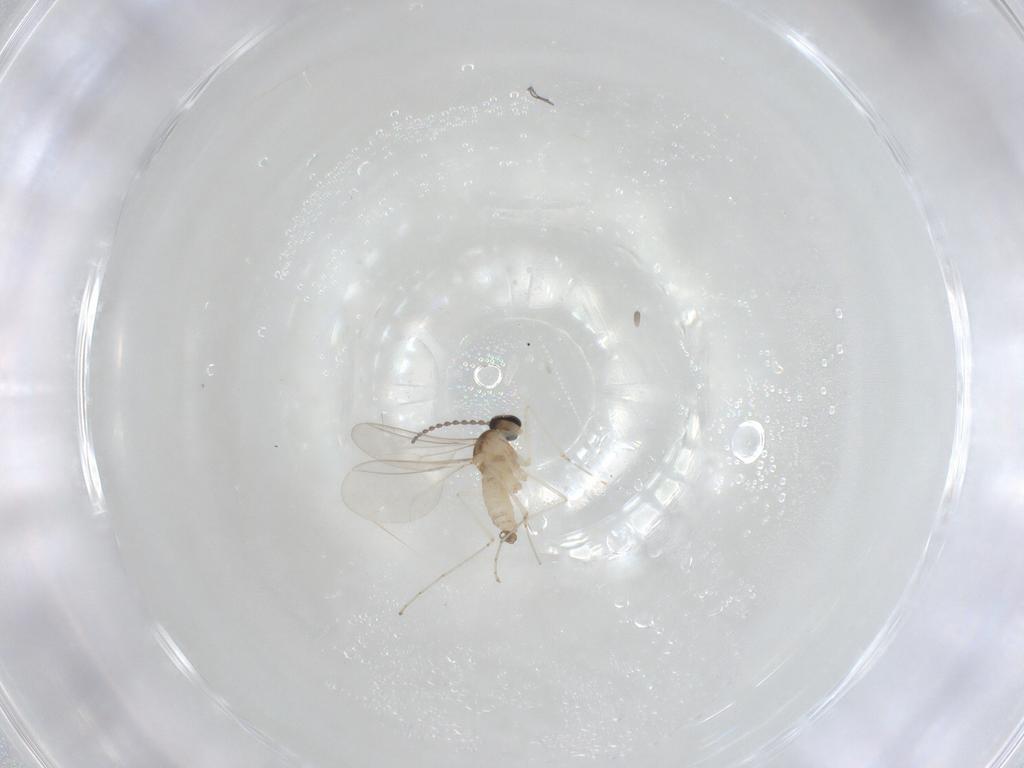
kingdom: Animalia
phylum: Arthropoda
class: Insecta
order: Diptera
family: Cecidomyiidae
